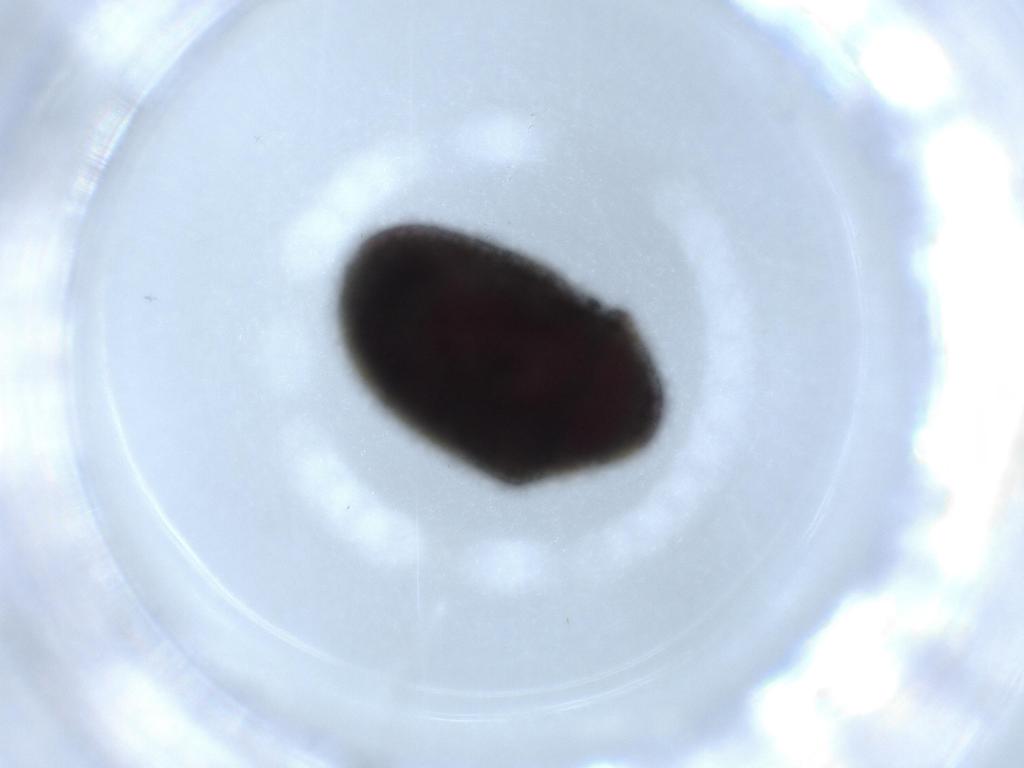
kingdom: Animalia
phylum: Arthropoda
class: Insecta
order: Coleoptera
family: Ptinidae
